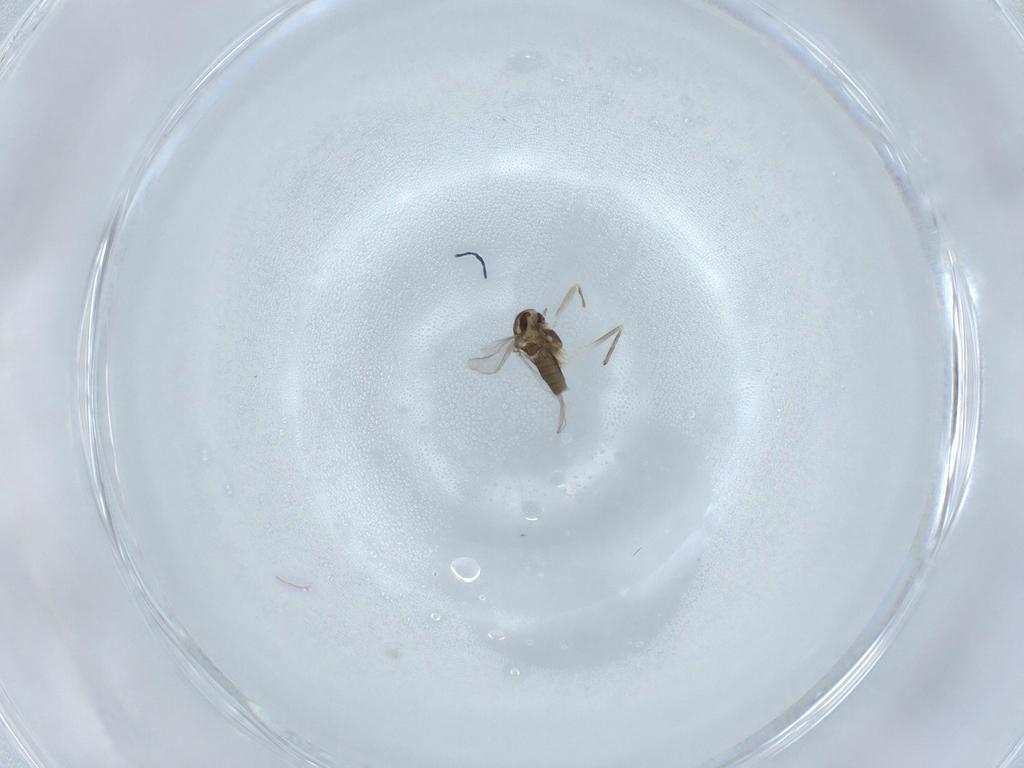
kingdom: Animalia
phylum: Arthropoda
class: Insecta
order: Diptera
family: Chironomidae
